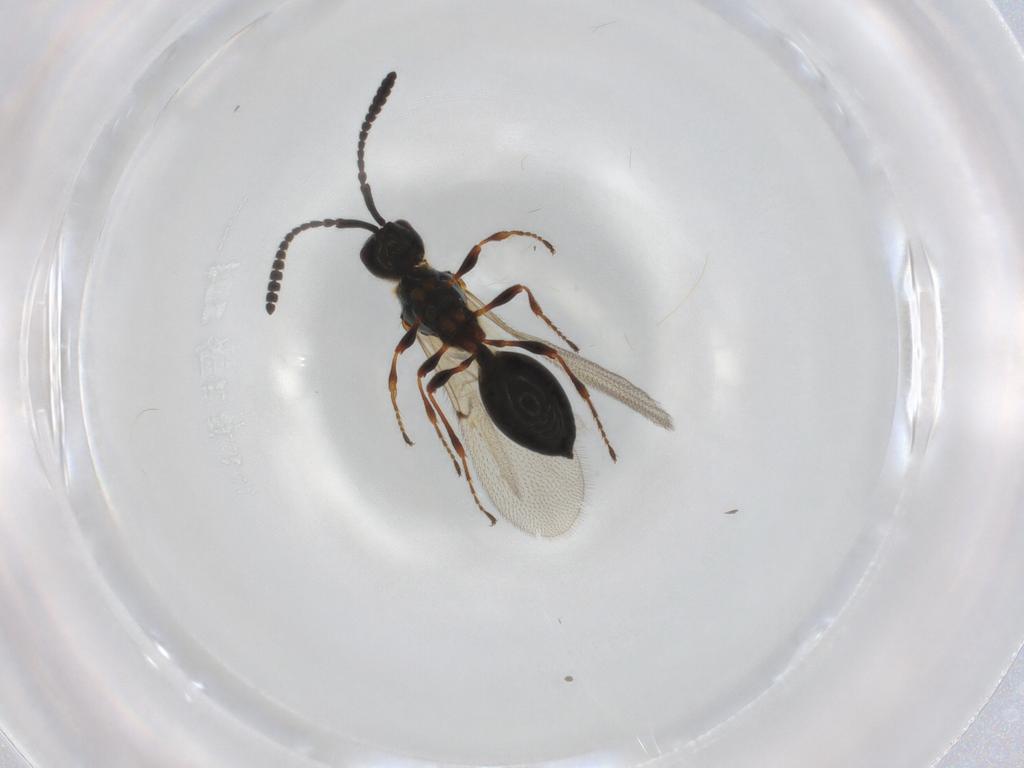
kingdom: Animalia
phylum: Arthropoda
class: Insecta
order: Hymenoptera
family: Diapriidae
